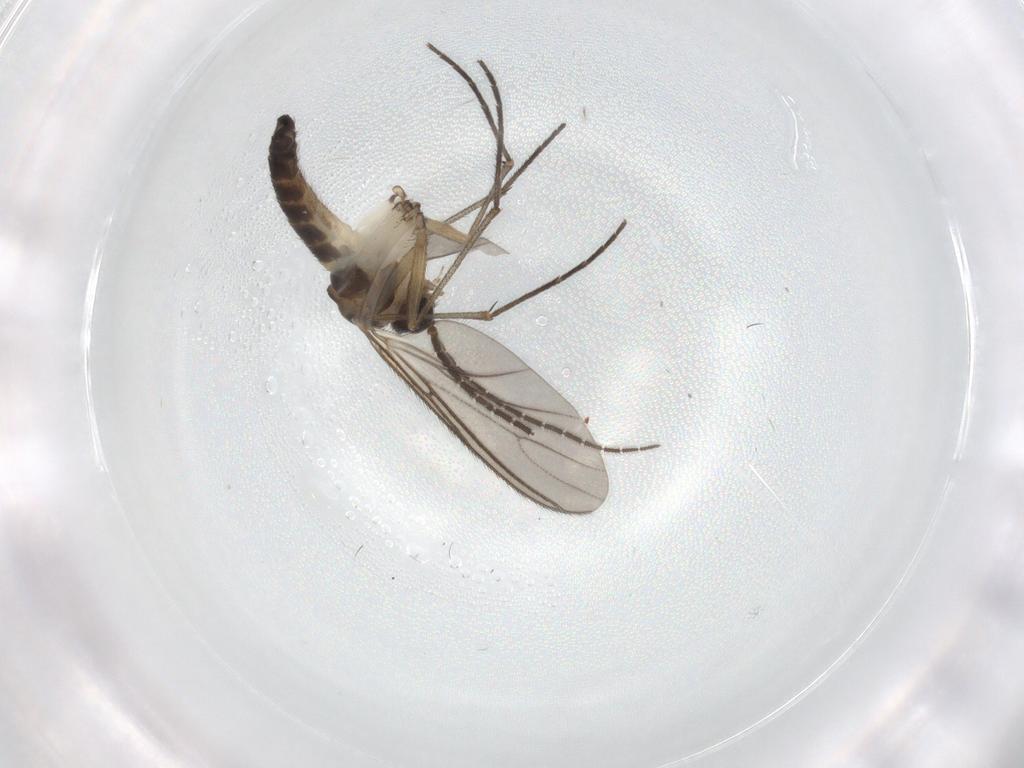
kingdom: Animalia
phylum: Arthropoda
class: Insecta
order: Diptera
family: Sciaridae
